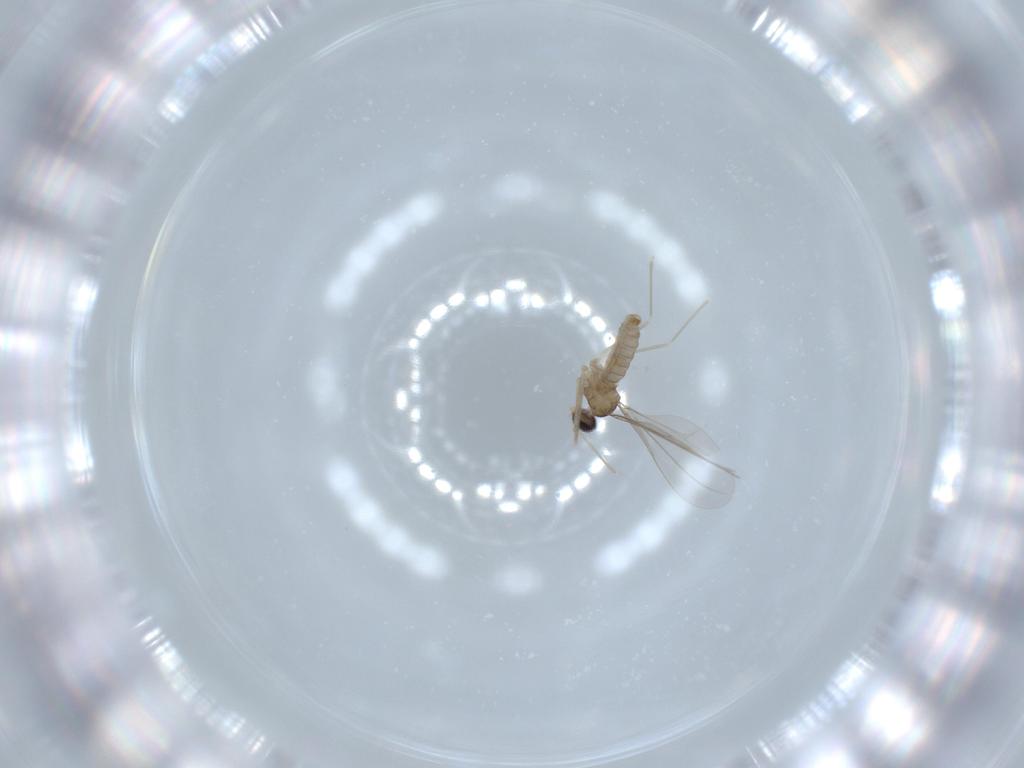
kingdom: Animalia
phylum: Arthropoda
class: Insecta
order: Diptera
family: Cecidomyiidae
